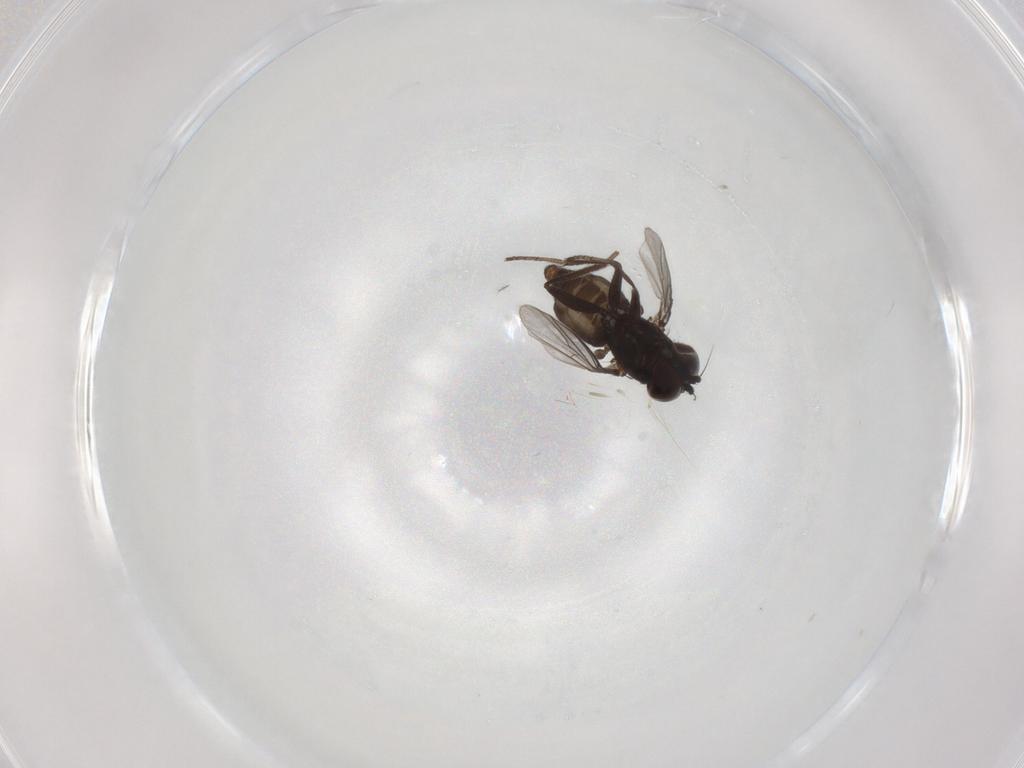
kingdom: Animalia
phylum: Arthropoda
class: Insecta
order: Diptera
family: Dolichopodidae
